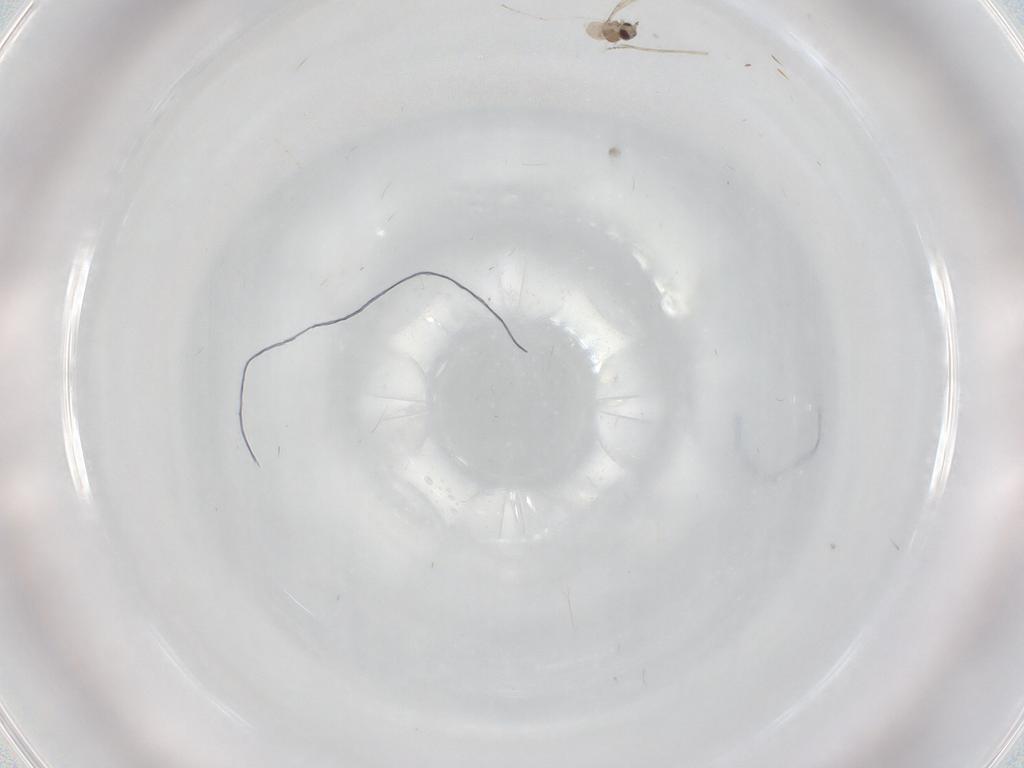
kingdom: Animalia
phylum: Arthropoda
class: Insecta
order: Diptera
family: Cecidomyiidae
